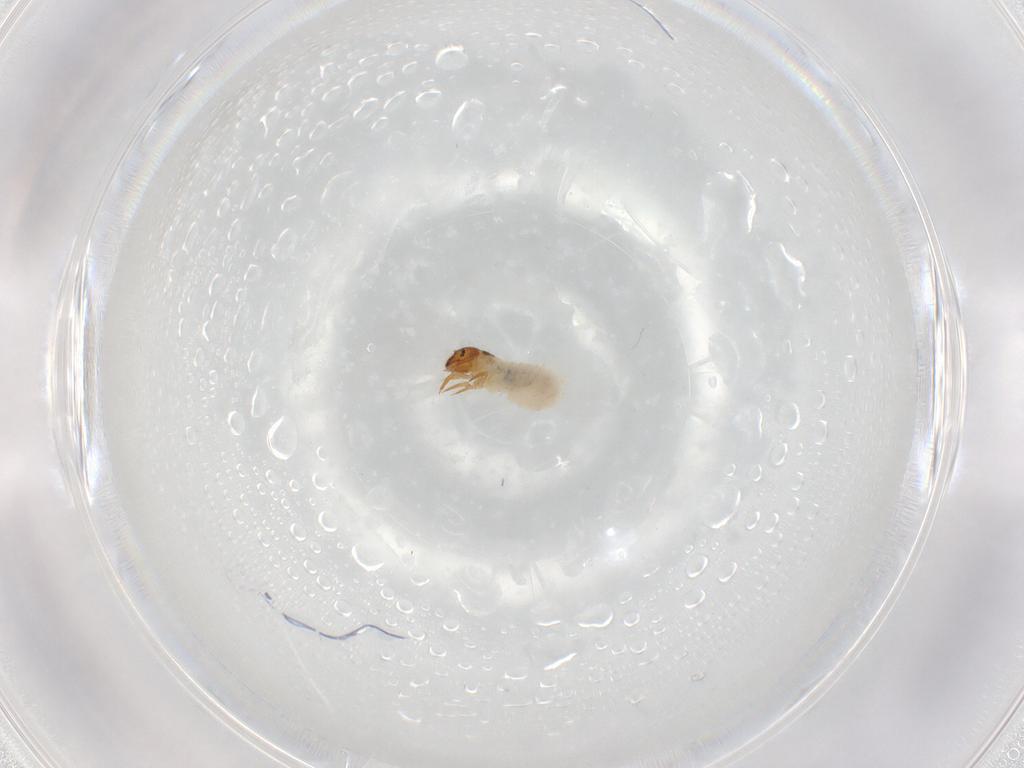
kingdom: Animalia
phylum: Arthropoda
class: Insecta
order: Coleoptera
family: Chrysomelidae
